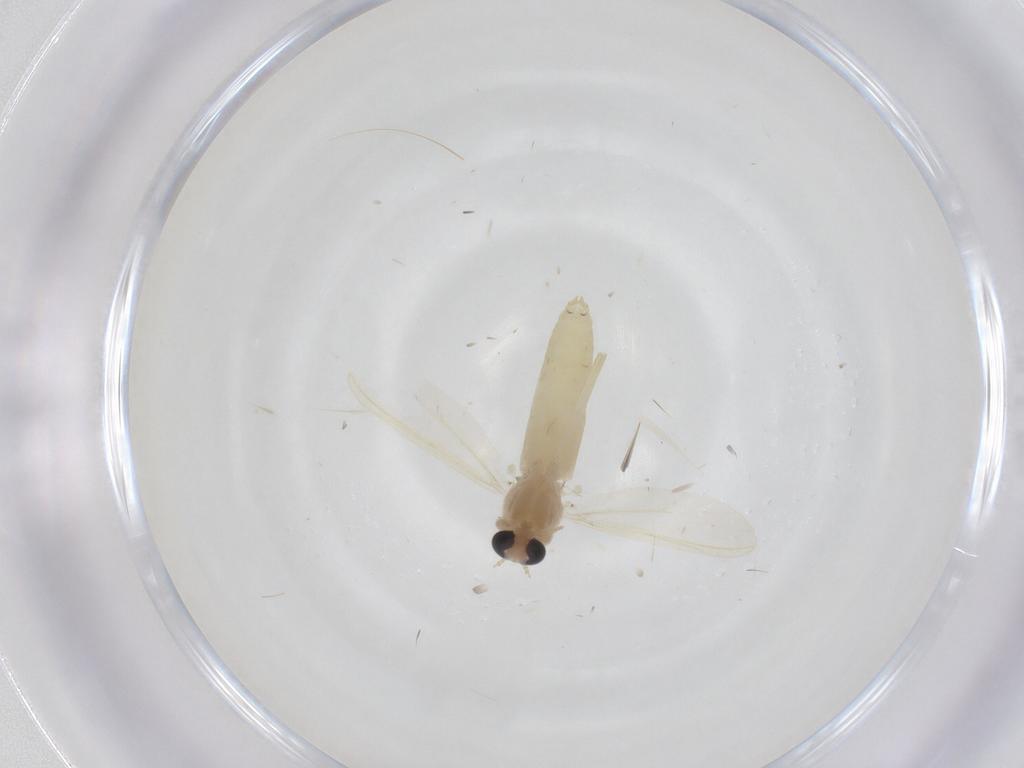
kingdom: Animalia
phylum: Arthropoda
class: Insecta
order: Diptera
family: Chironomidae
